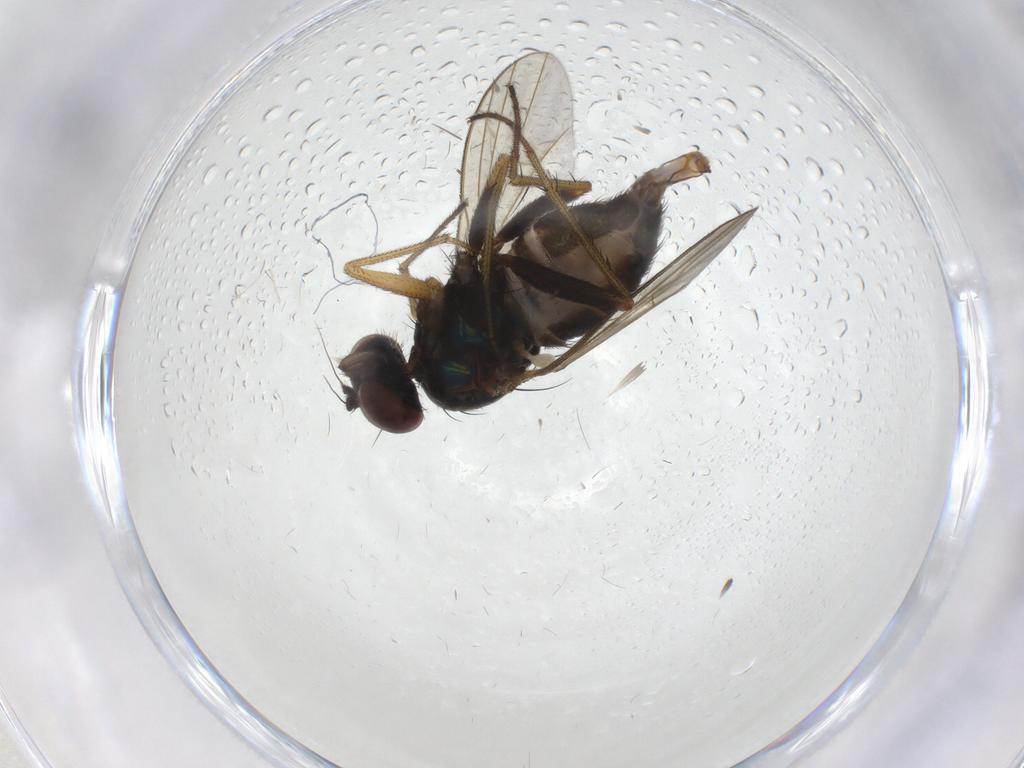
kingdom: Animalia
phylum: Arthropoda
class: Insecta
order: Diptera
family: Dolichopodidae
